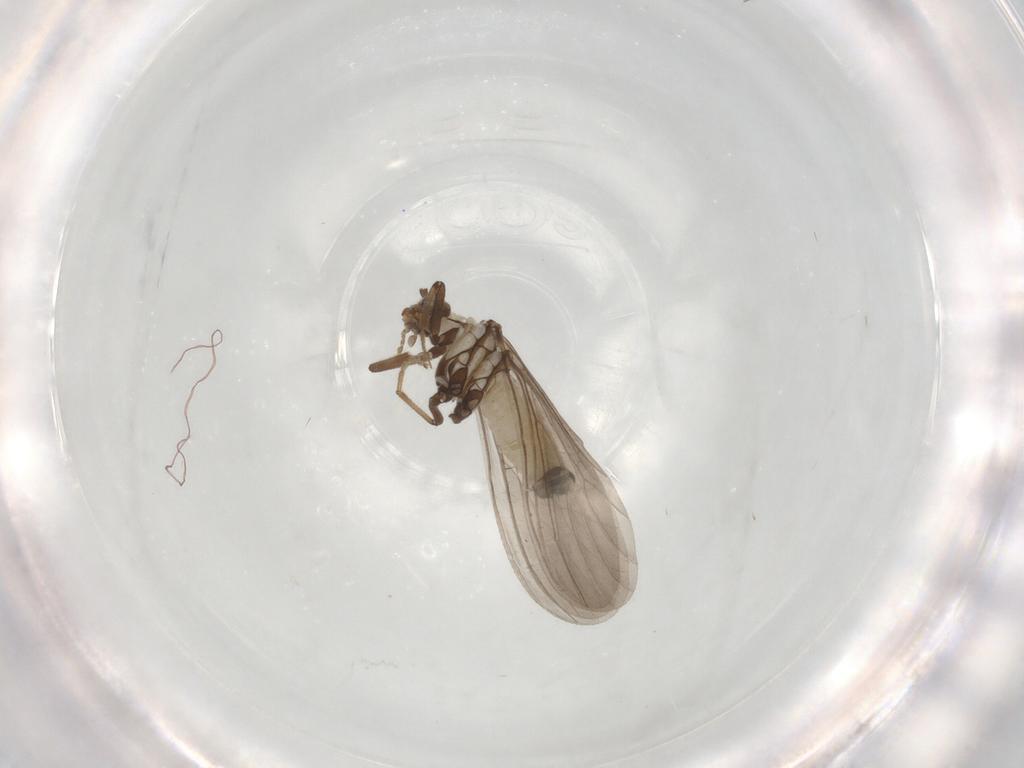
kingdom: Animalia
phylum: Arthropoda
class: Insecta
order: Neuroptera
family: Coniopterygidae
